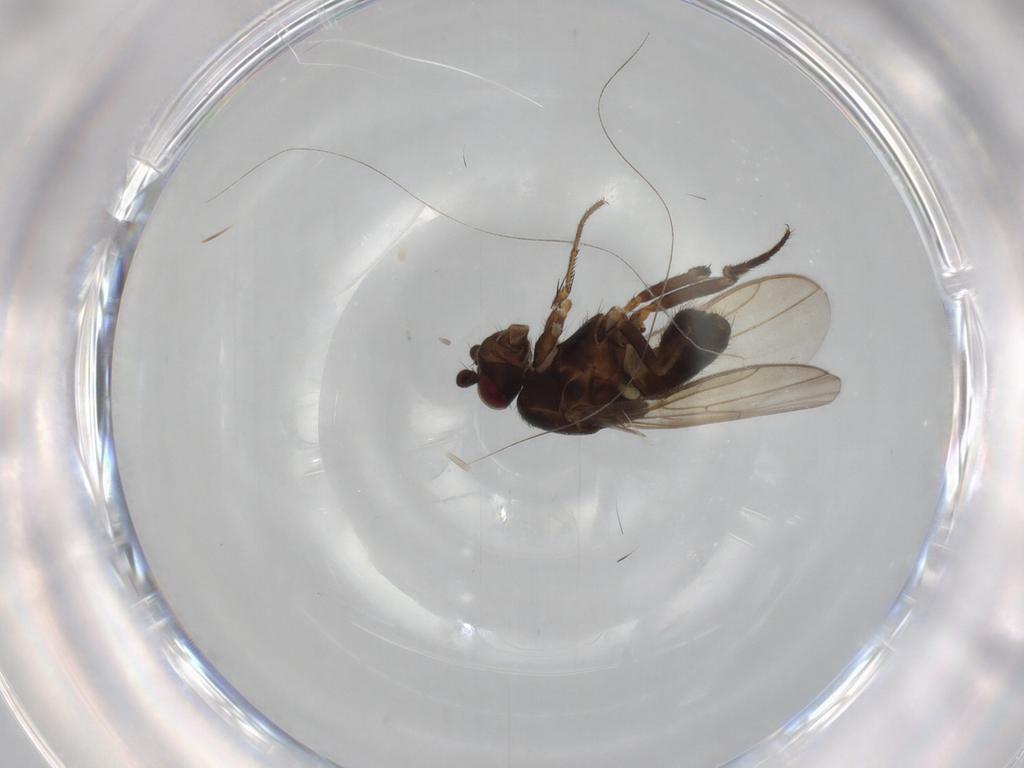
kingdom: Animalia
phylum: Arthropoda
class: Insecta
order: Diptera
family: Sphaeroceridae
